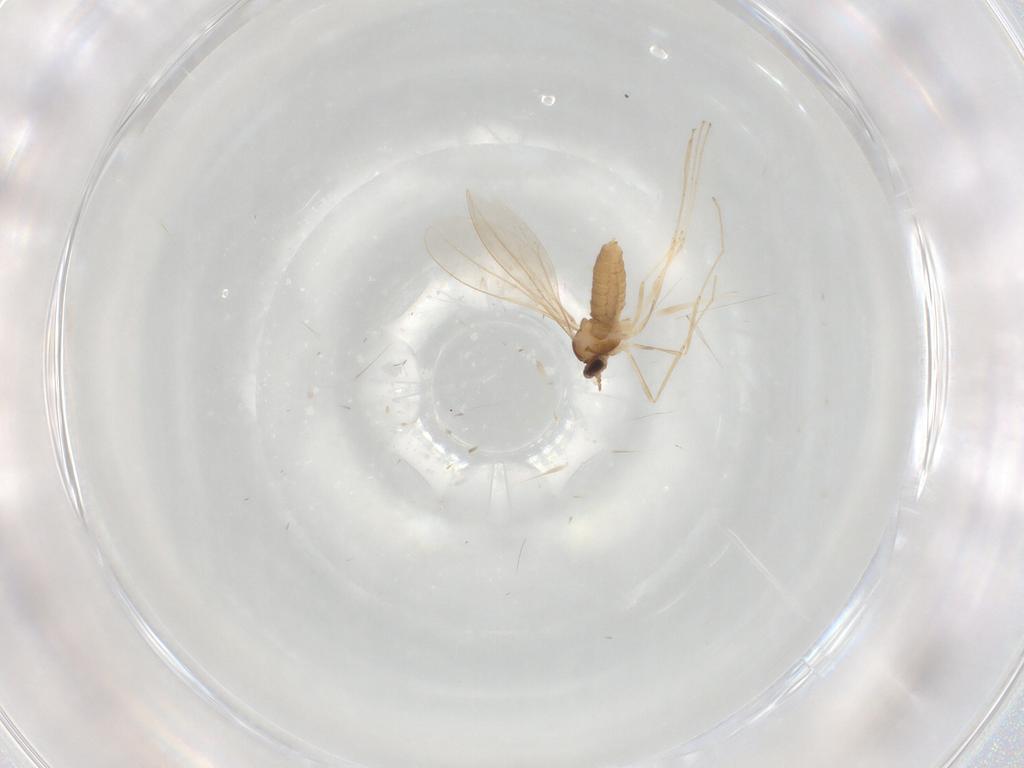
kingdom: Animalia
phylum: Arthropoda
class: Insecta
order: Diptera
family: Cecidomyiidae
